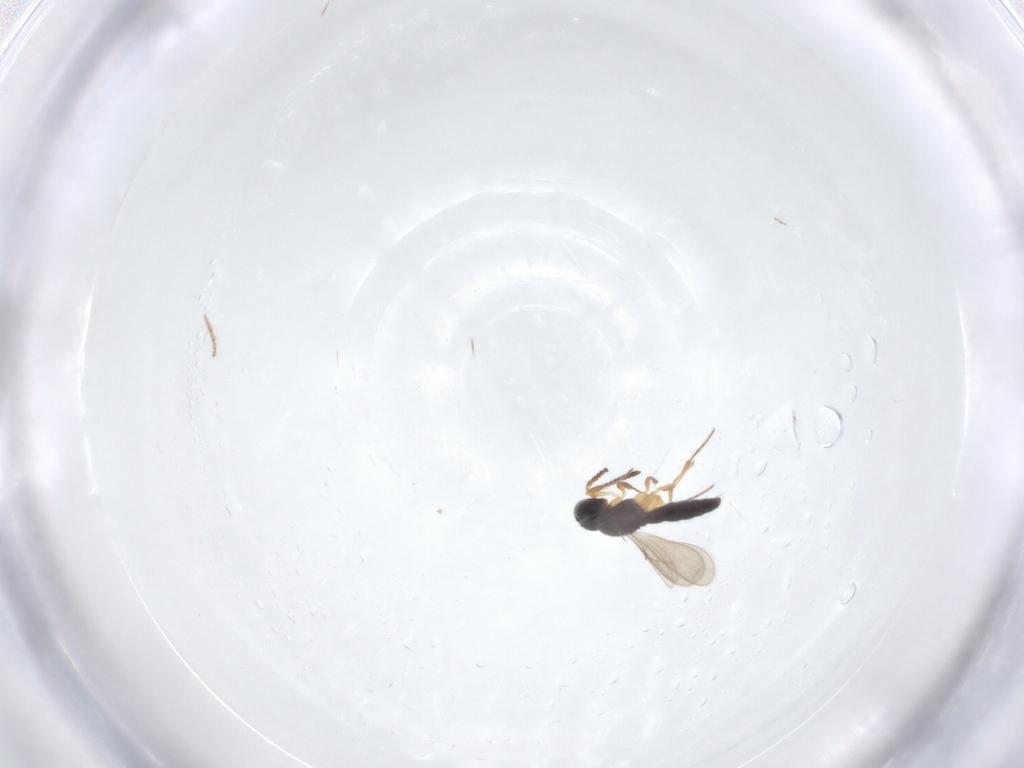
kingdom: Animalia
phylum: Arthropoda
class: Insecta
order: Hymenoptera
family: Scelionidae
